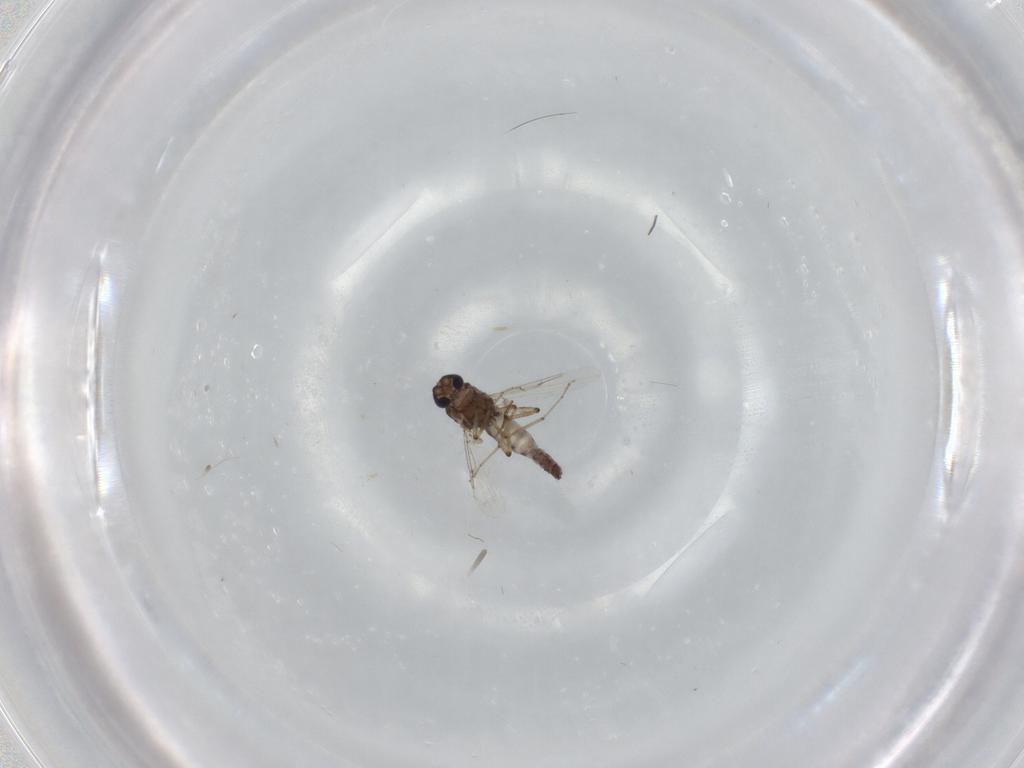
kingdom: Animalia
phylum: Arthropoda
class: Insecta
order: Diptera
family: Ceratopogonidae
